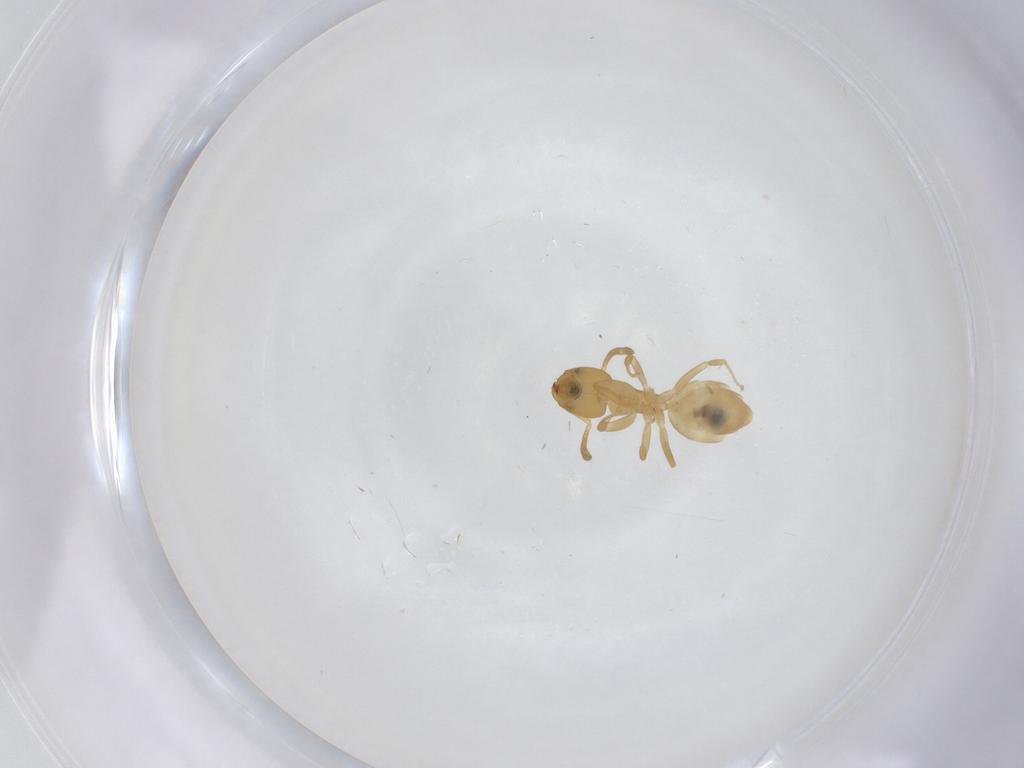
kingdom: Animalia
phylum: Arthropoda
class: Insecta
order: Hymenoptera
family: Formicidae
